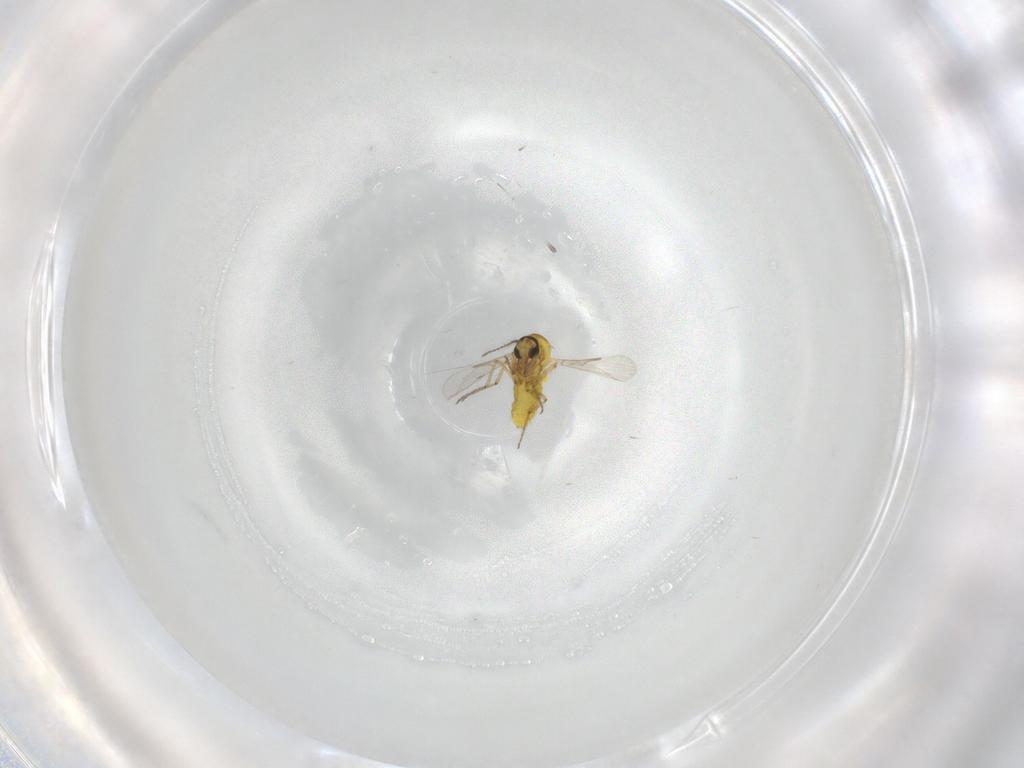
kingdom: Animalia
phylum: Arthropoda
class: Insecta
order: Diptera
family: Ceratopogonidae
